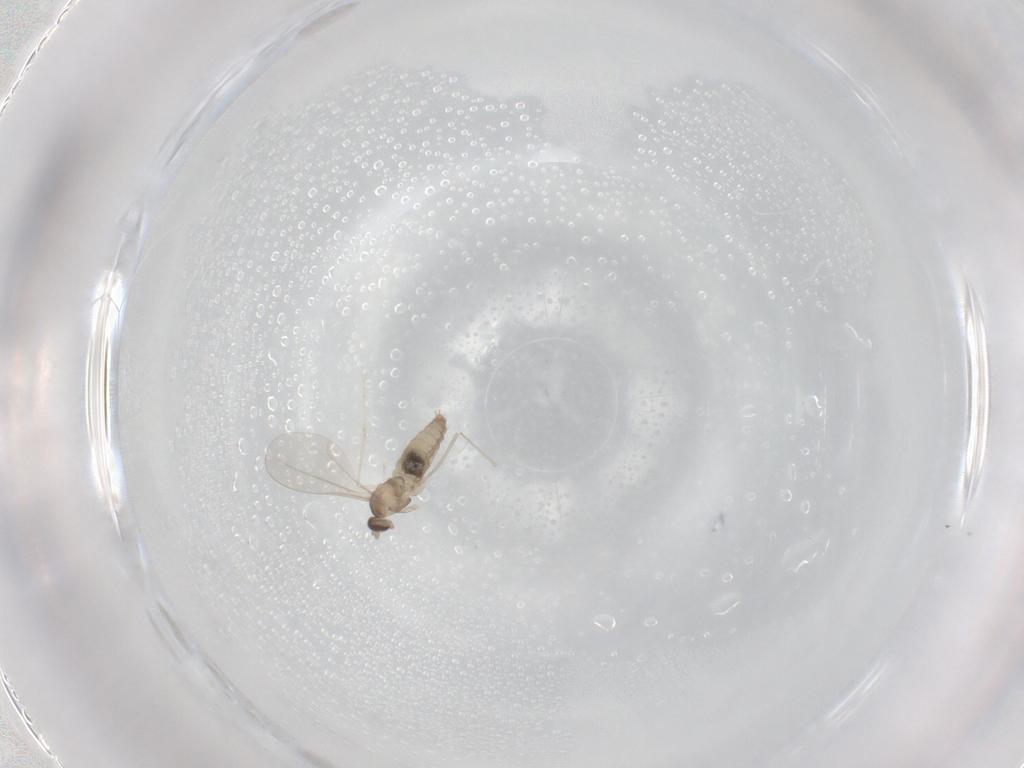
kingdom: Animalia
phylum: Arthropoda
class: Insecta
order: Diptera
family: Cecidomyiidae
